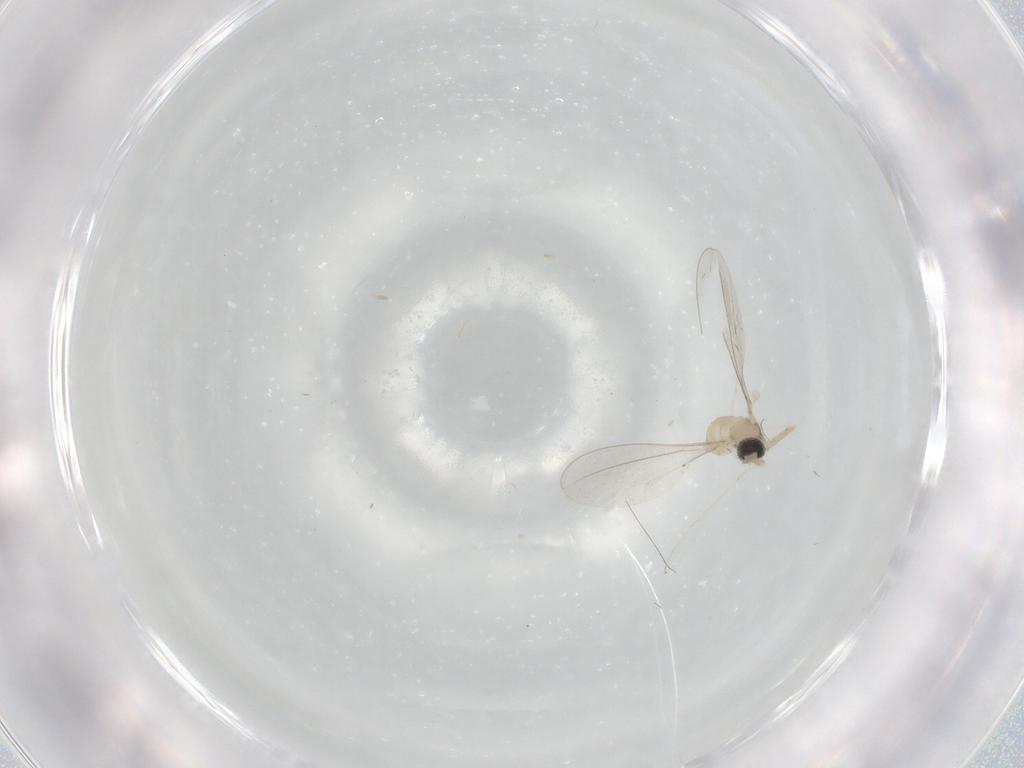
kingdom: Animalia
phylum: Arthropoda
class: Insecta
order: Diptera
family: Cecidomyiidae
